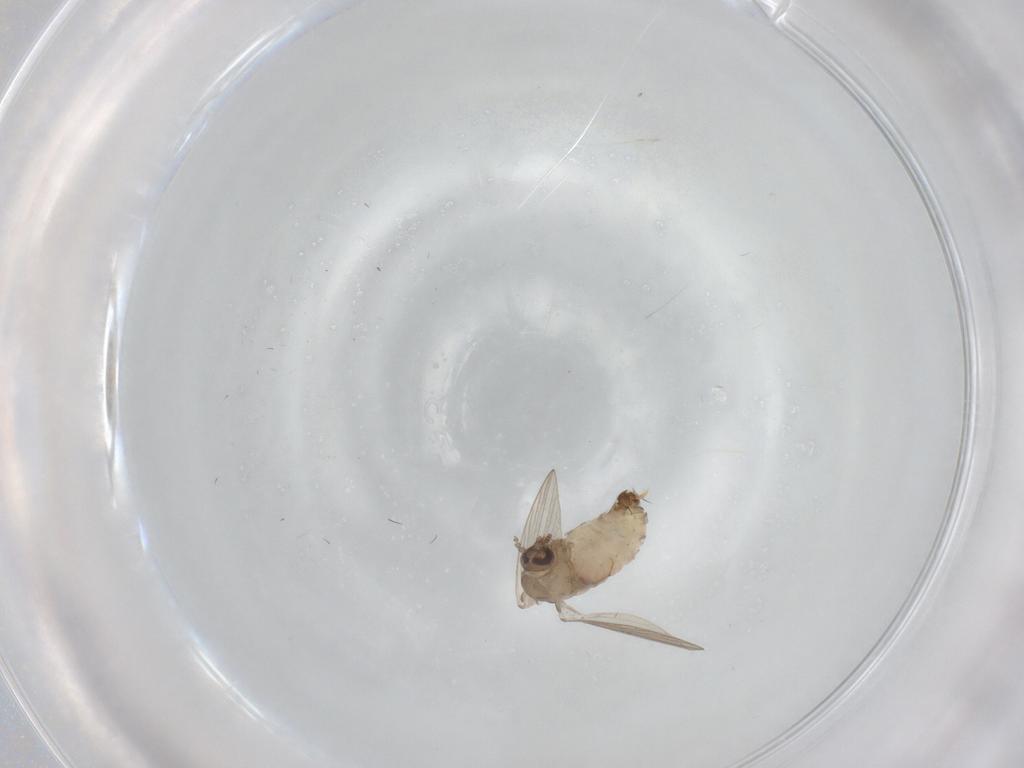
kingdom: Animalia
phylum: Arthropoda
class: Insecta
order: Diptera
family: Psychodidae
